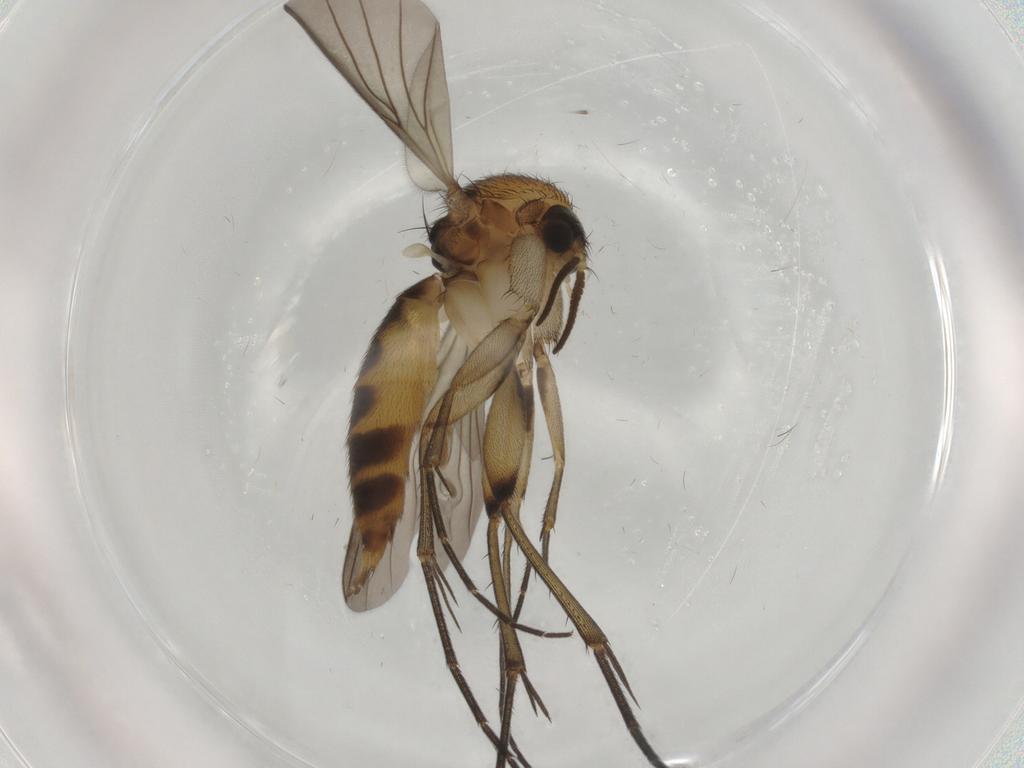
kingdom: Animalia
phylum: Arthropoda
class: Insecta
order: Diptera
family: Mycetophilidae
